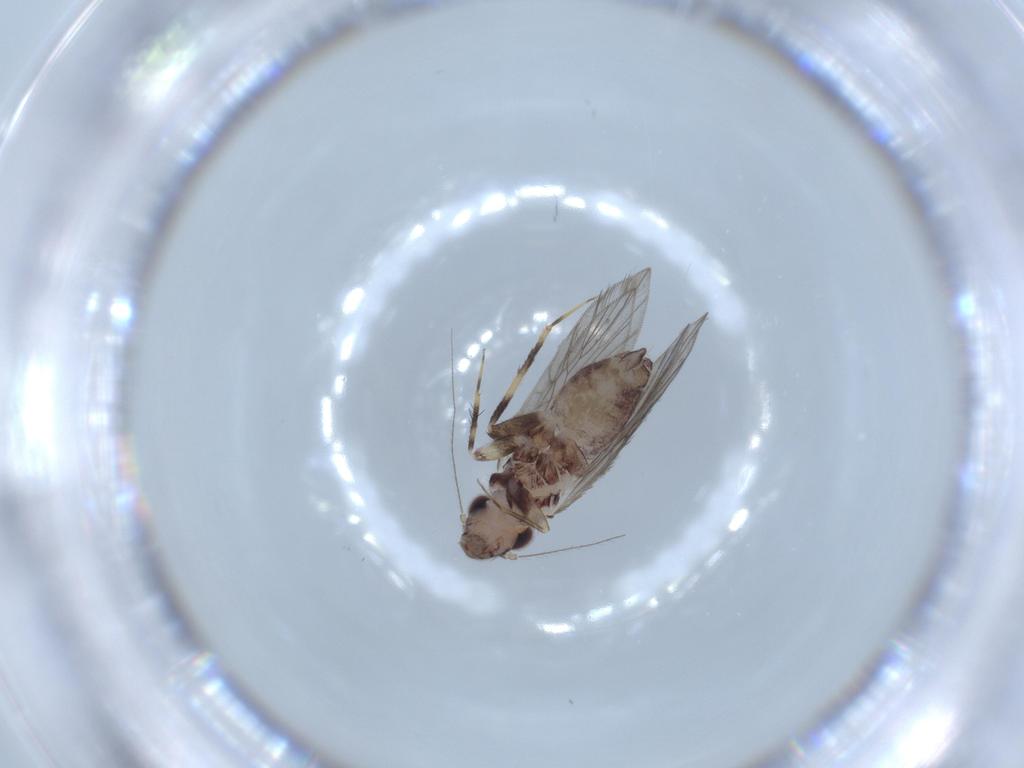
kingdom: Animalia
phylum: Arthropoda
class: Insecta
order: Psocodea
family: Lepidopsocidae
